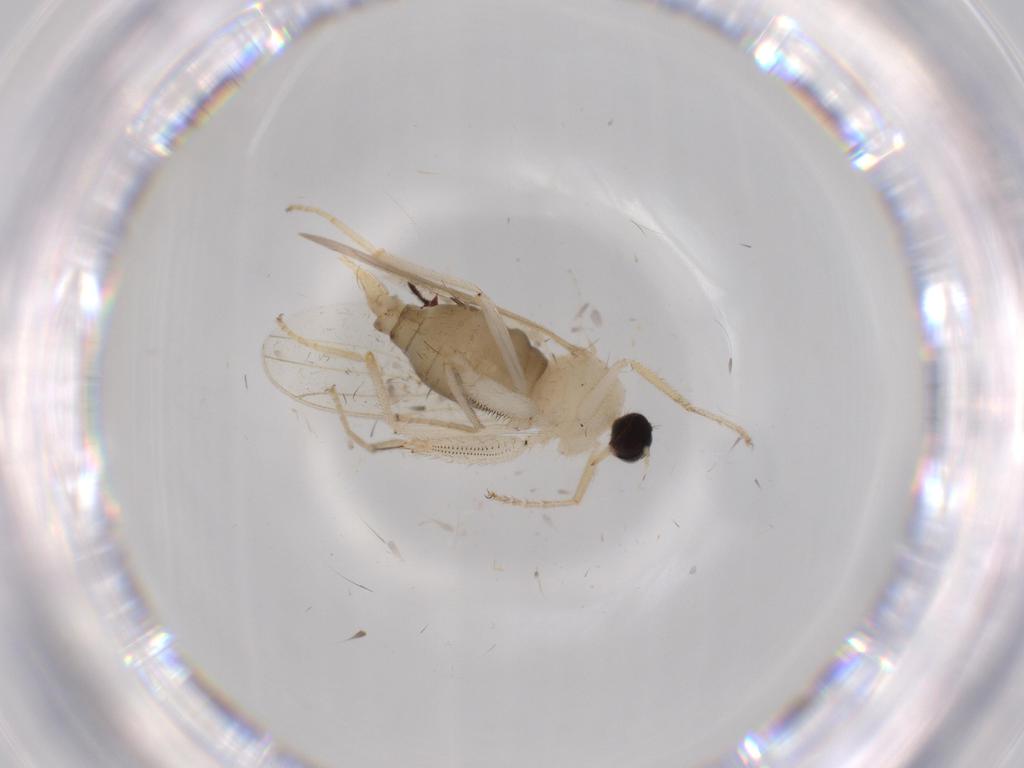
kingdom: Animalia
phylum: Arthropoda
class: Insecta
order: Diptera
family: Hybotidae
